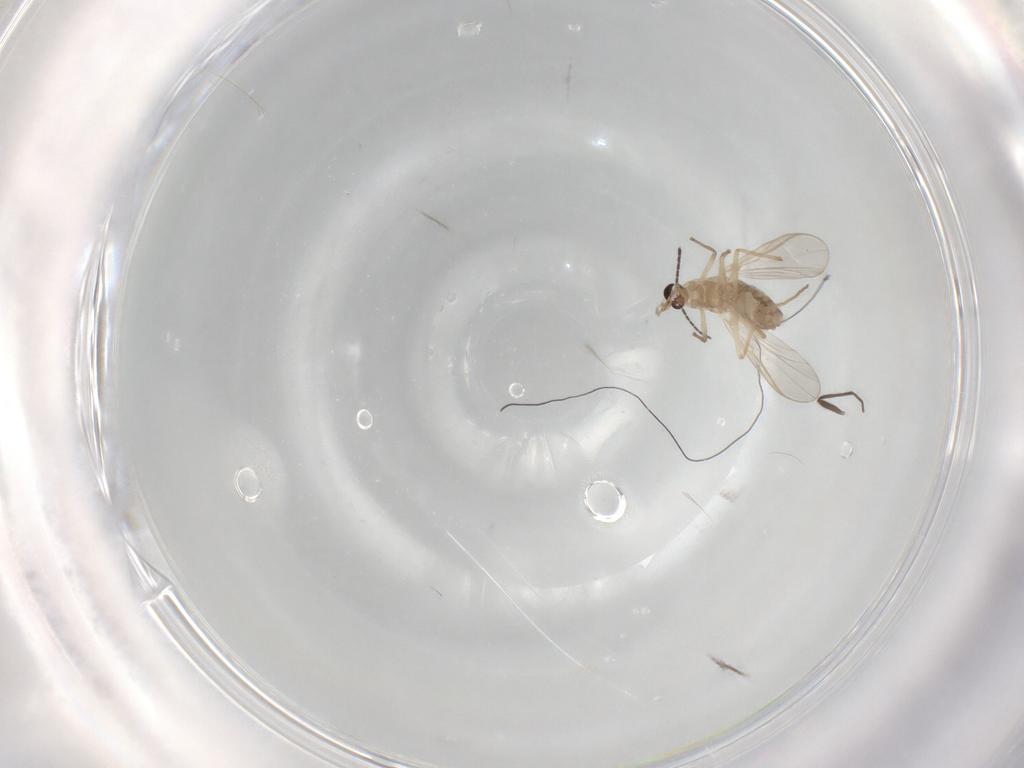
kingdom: Animalia
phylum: Arthropoda
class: Insecta
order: Diptera
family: Chironomidae
